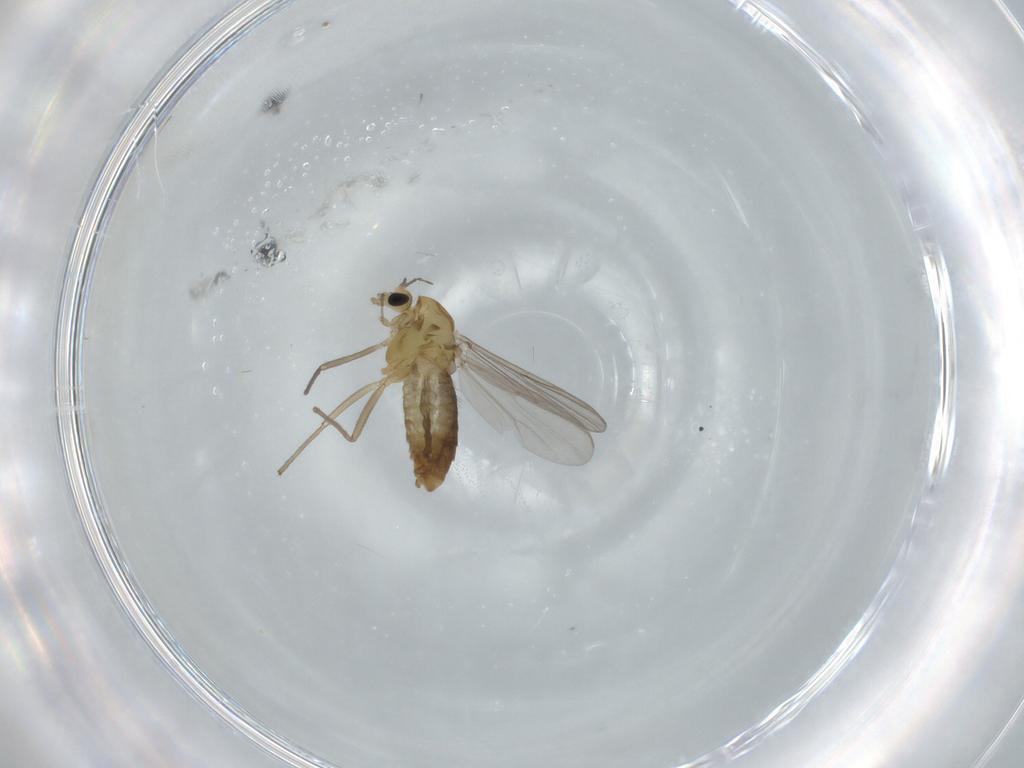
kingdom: Animalia
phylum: Arthropoda
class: Insecta
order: Diptera
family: Chironomidae
